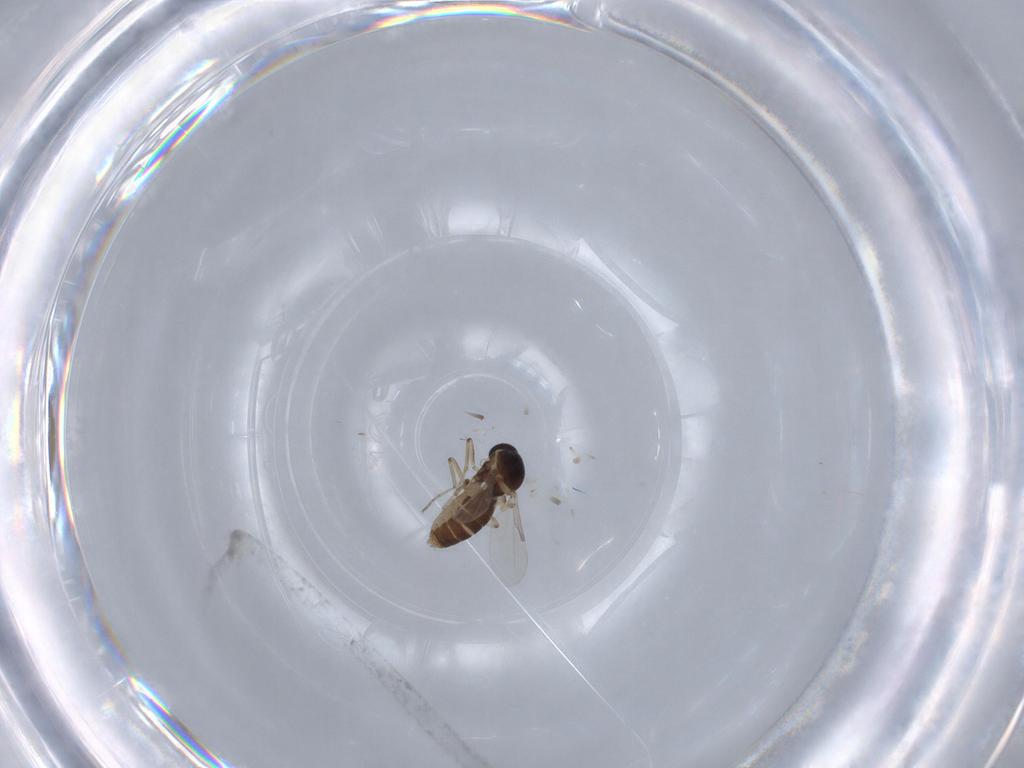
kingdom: Animalia
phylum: Arthropoda
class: Insecta
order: Diptera
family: Ceratopogonidae
